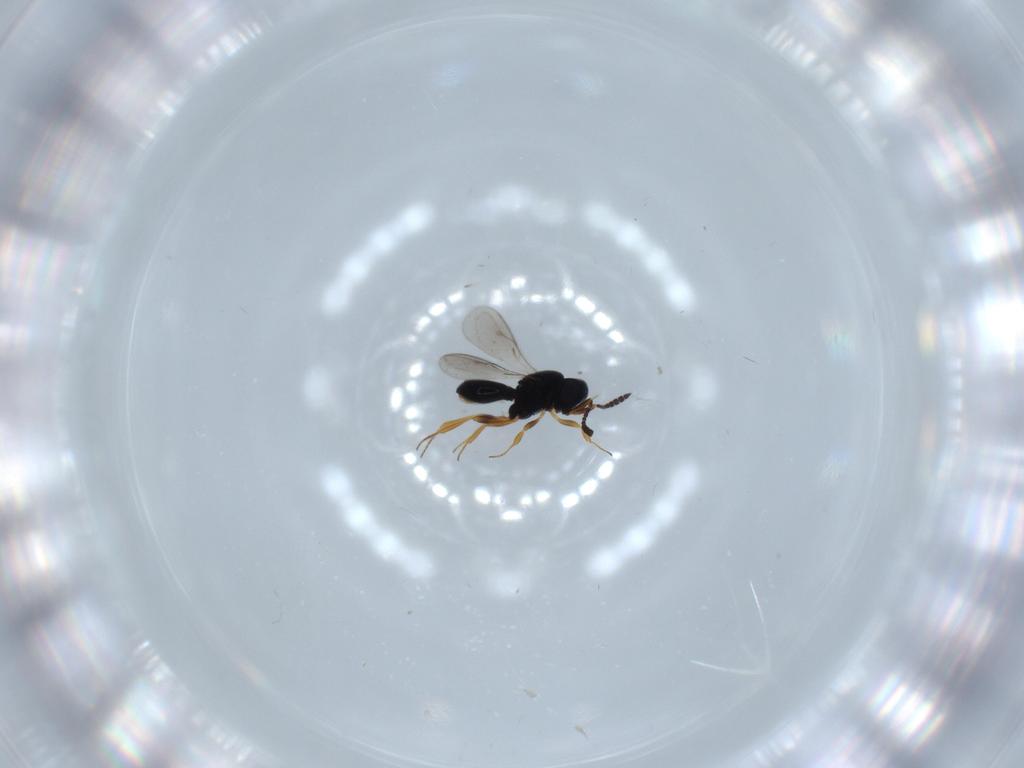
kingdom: Animalia
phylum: Arthropoda
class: Insecta
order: Hymenoptera
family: Scelionidae
